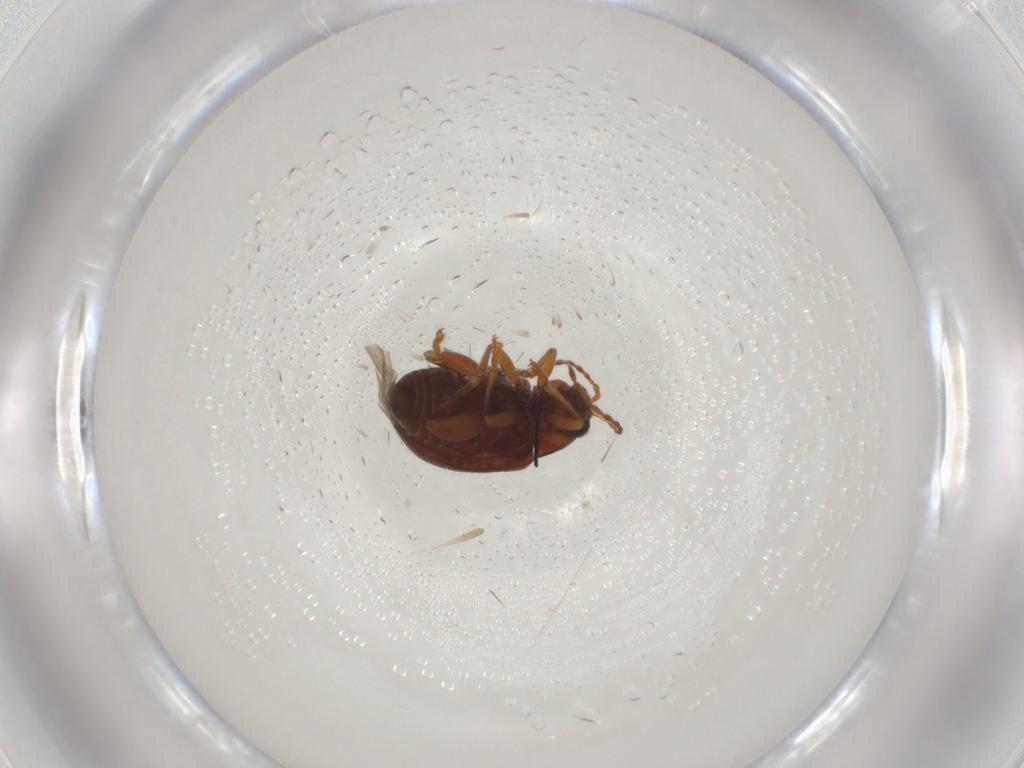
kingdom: Animalia
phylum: Arthropoda
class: Insecta
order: Coleoptera
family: Chrysomelidae
